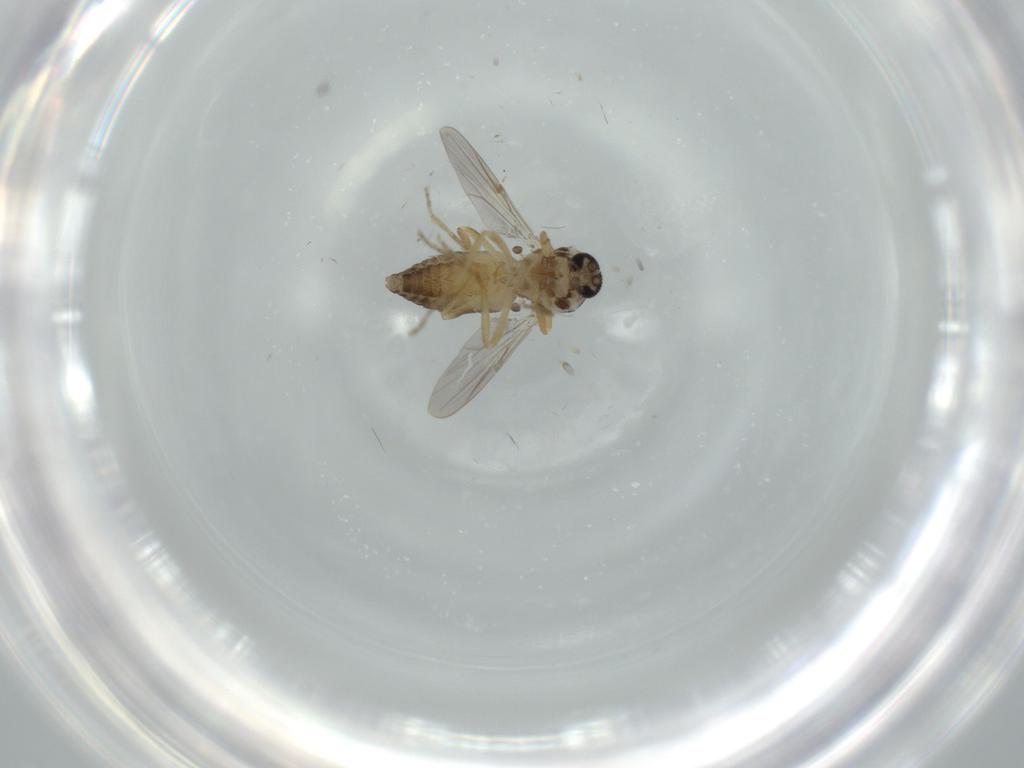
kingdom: Animalia
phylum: Arthropoda
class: Insecta
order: Diptera
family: Ceratopogonidae
